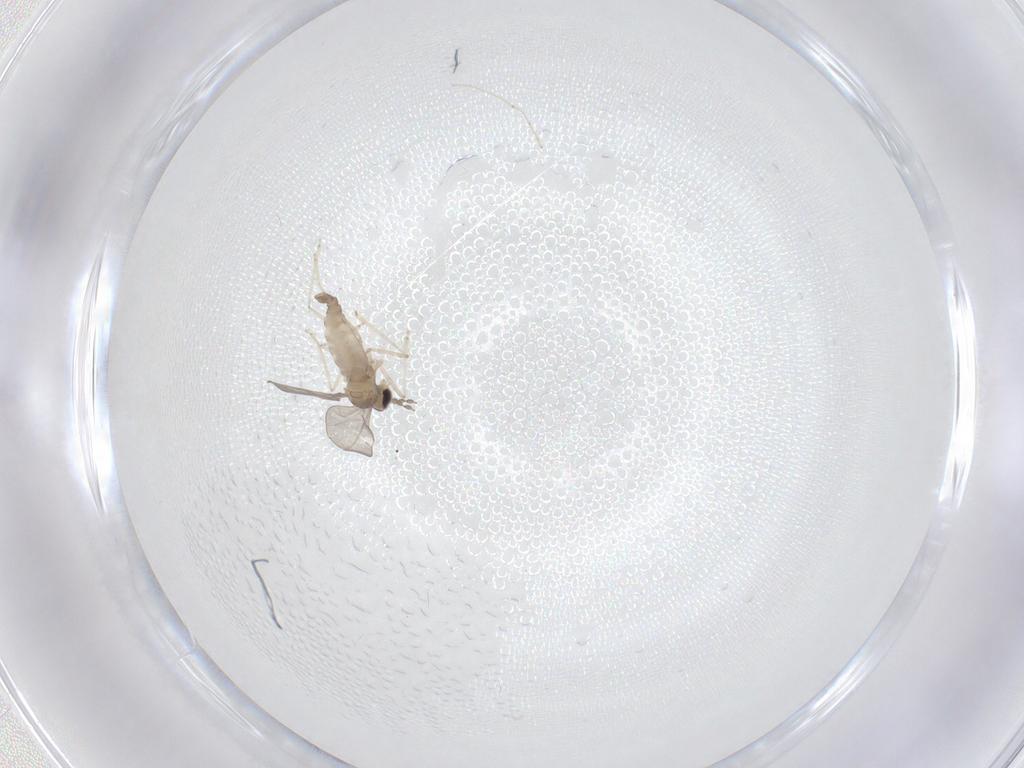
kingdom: Animalia
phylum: Arthropoda
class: Insecta
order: Diptera
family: Cecidomyiidae
